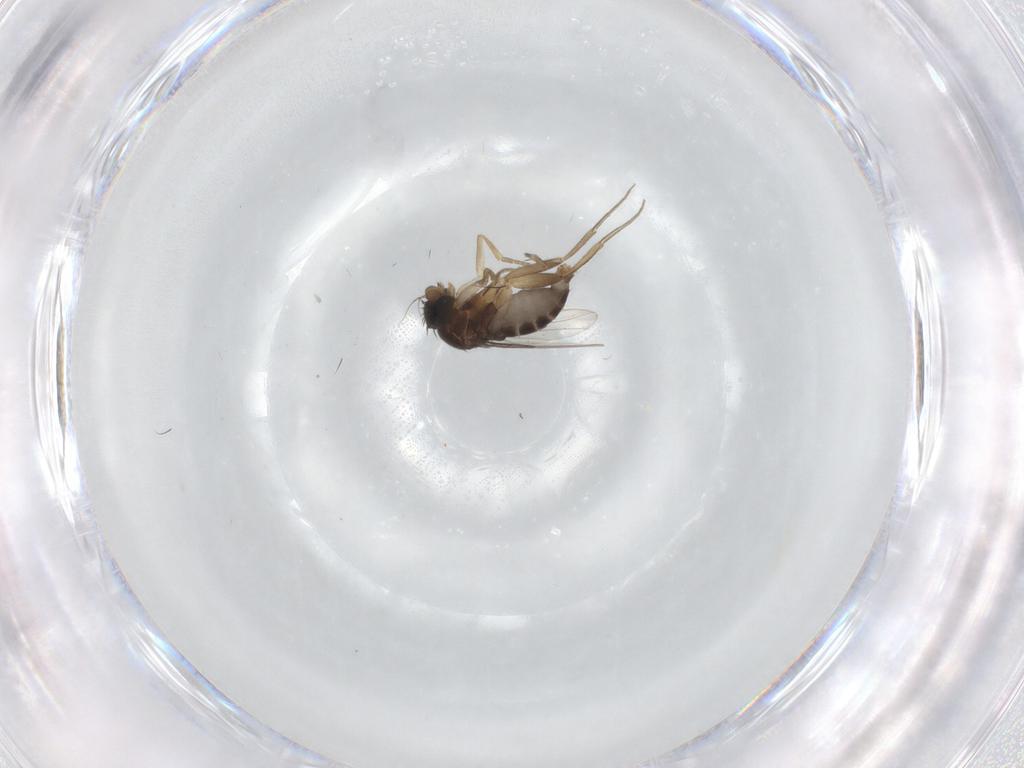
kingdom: Animalia
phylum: Arthropoda
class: Insecta
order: Diptera
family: Phoridae
